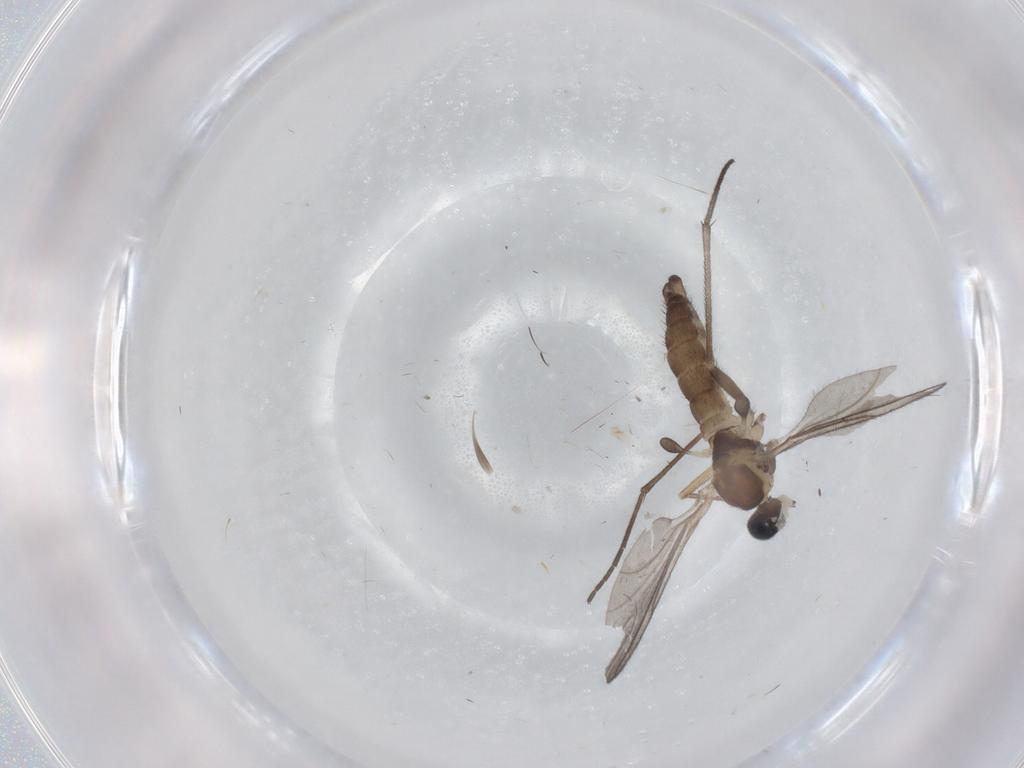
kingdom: Animalia
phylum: Arthropoda
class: Insecta
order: Diptera
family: Sciaridae
